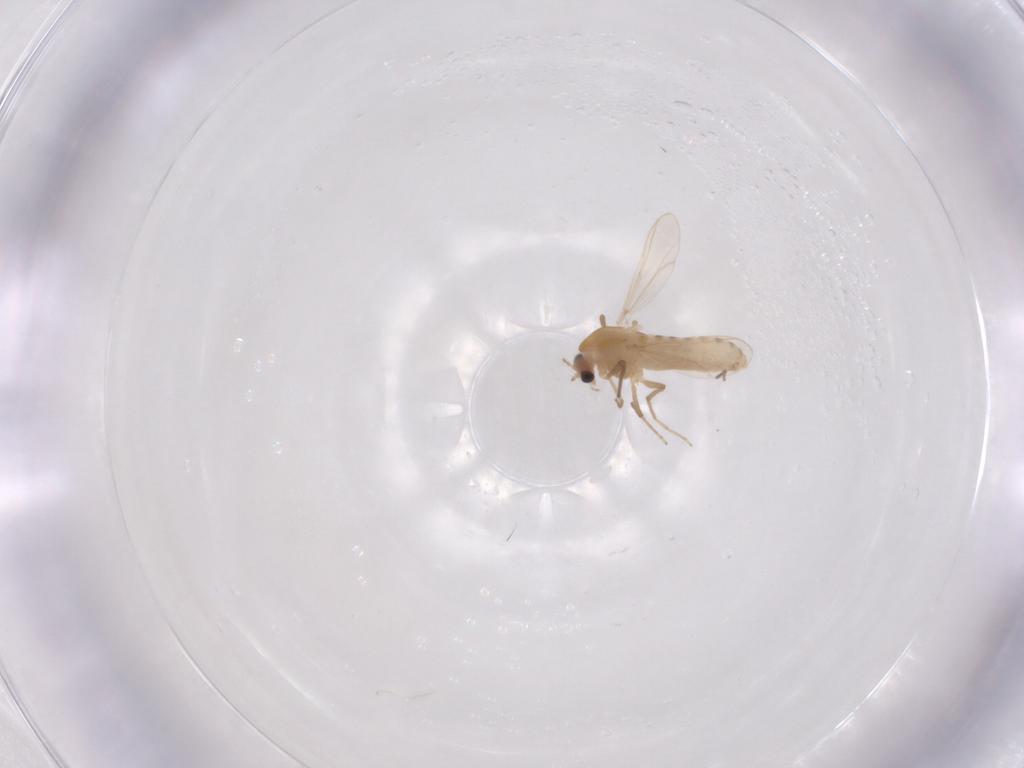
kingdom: Animalia
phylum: Arthropoda
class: Insecta
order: Diptera
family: Chironomidae
